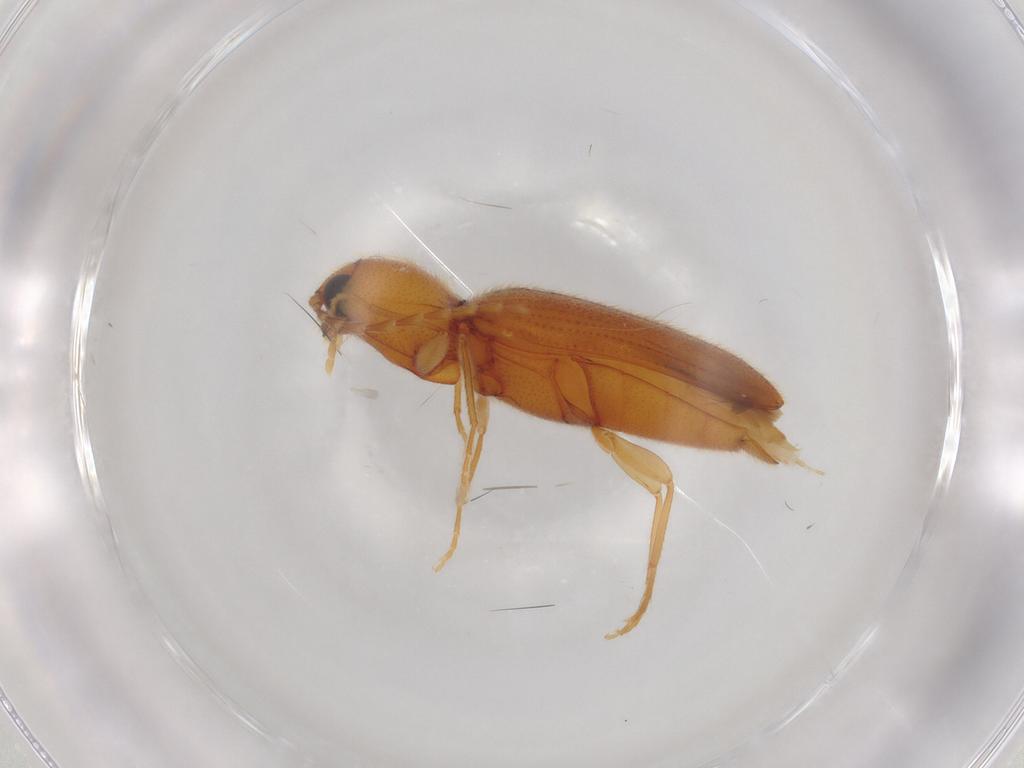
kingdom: Animalia
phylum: Arthropoda
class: Insecta
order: Coleoptera
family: Elateridae
